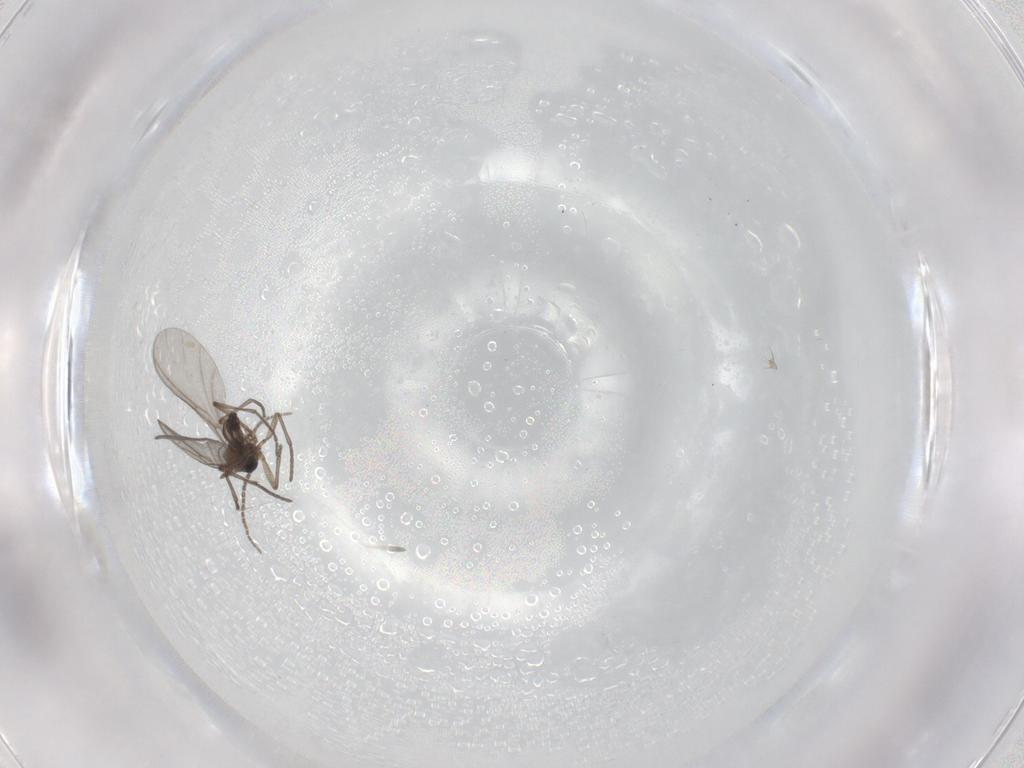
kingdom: Animalia
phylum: Arthropoda
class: Insecta
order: Diptera
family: Sciaridae
